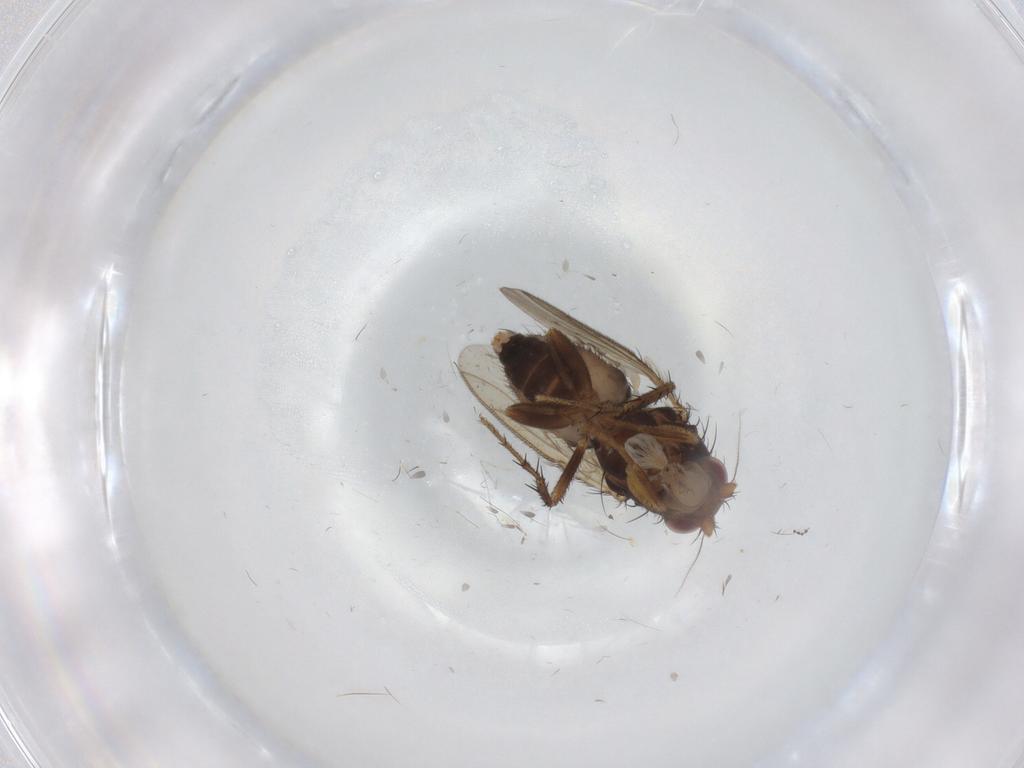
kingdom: Animalia
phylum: Arthropoda
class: Insecta
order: Diptera
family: Sphaeroceridae
